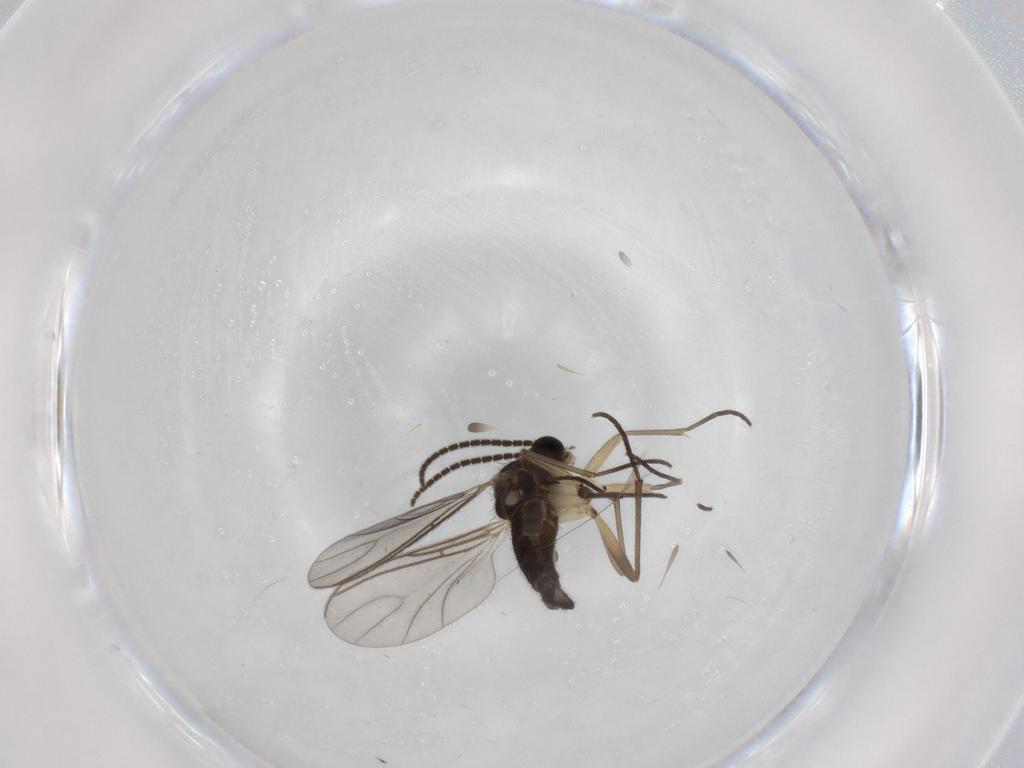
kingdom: Animalia
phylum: Arthropoda
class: Insecta
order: Diptera
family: Sciaridae
